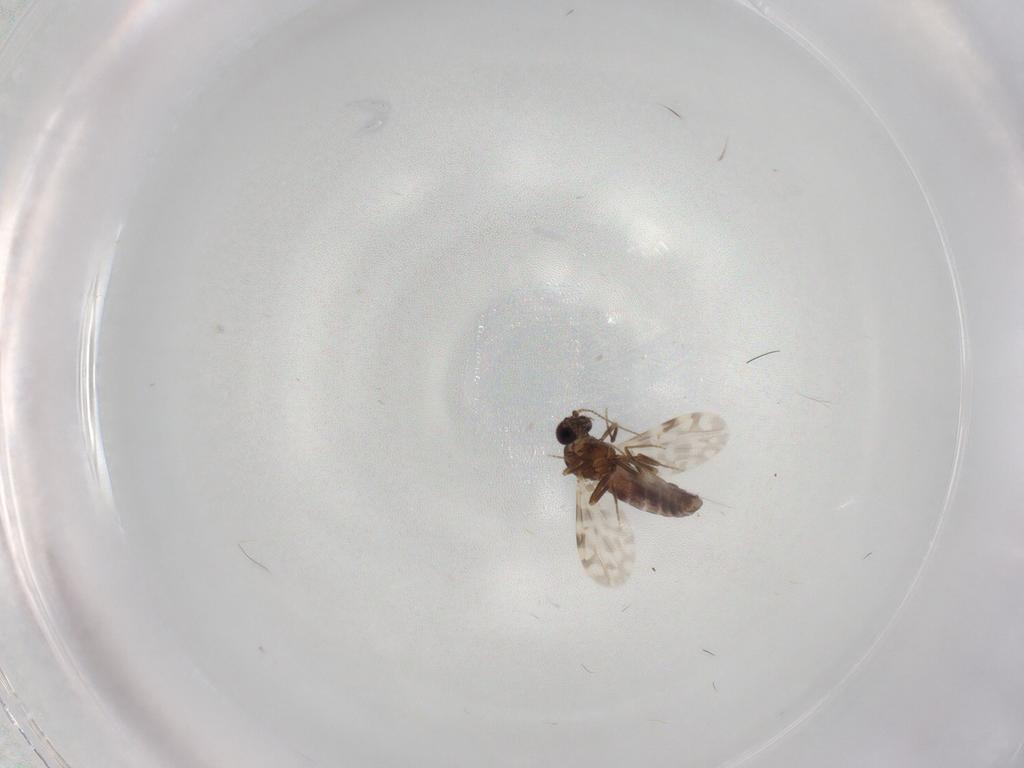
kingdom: Animalia
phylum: Arthropoda
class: Insecta
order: Diptera
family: Ceratopogonidae
